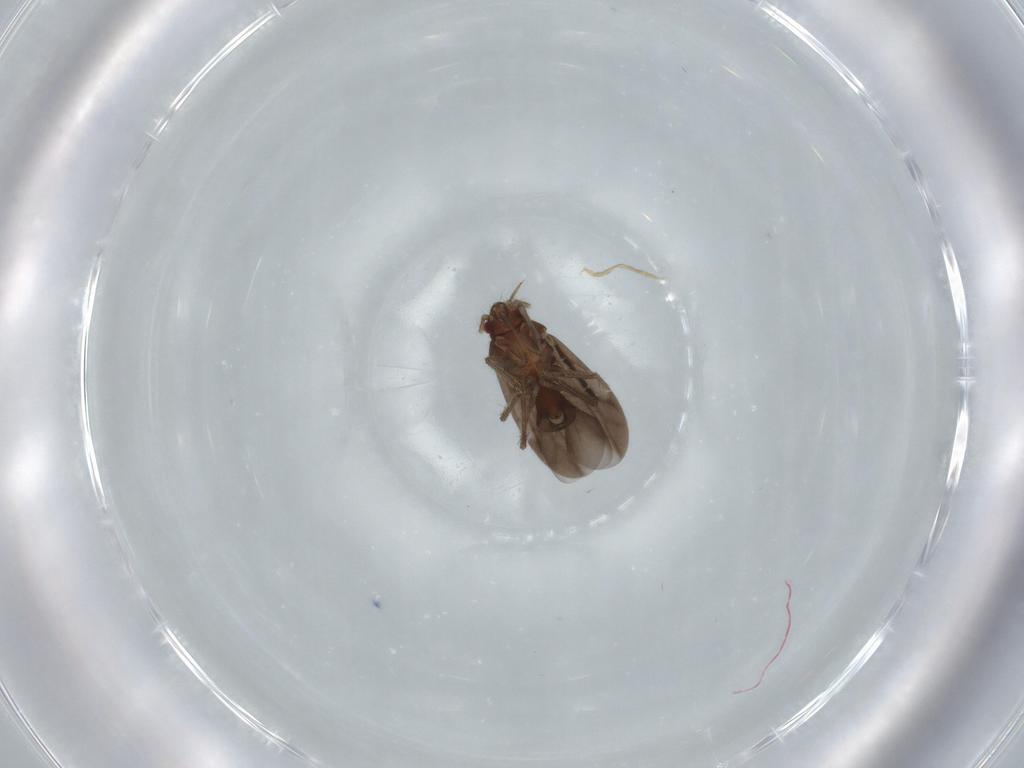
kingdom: Animalia
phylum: Arthropoda
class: Insecta
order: Hemiptera
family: Ceratocombidae
